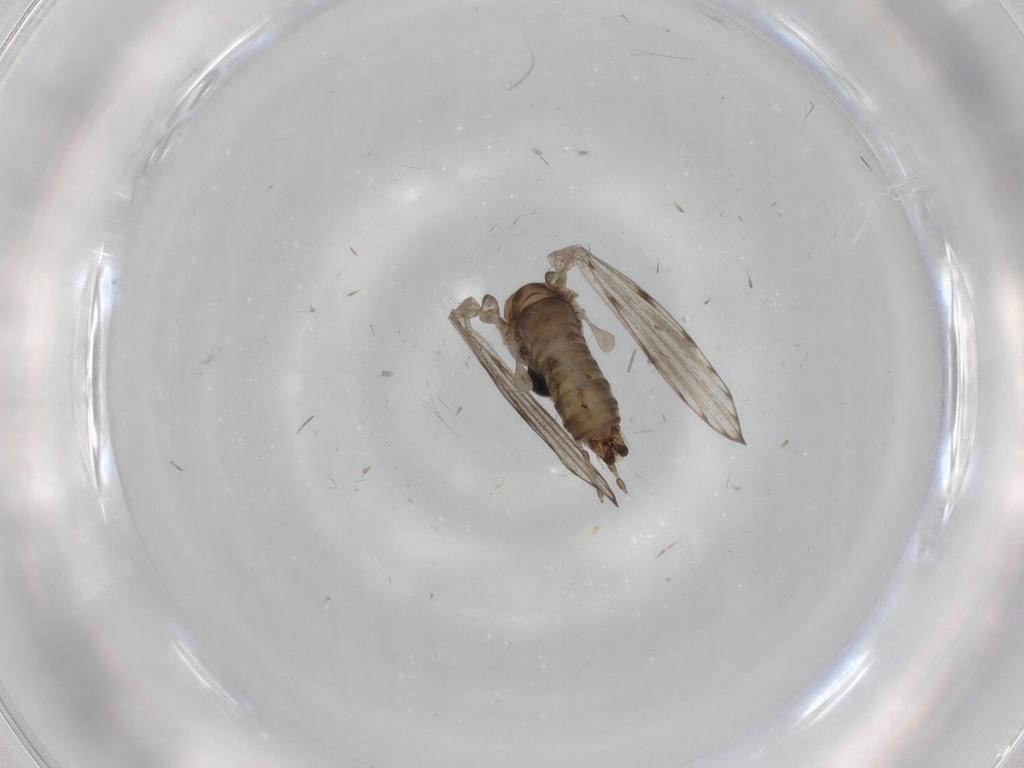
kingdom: Animalia
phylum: Arthropoda
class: Insecta
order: Diptera
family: Psychodidae
